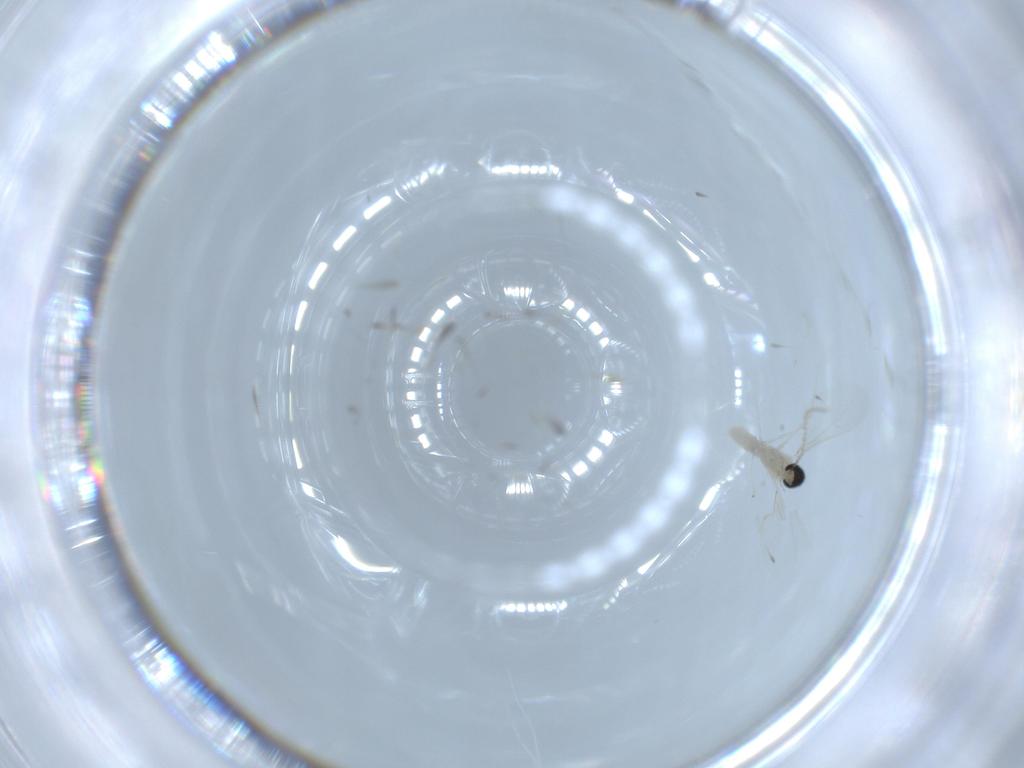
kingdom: Animalia
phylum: Arthropoda
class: Insecta
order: Diptera
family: Cecidomyiidae
